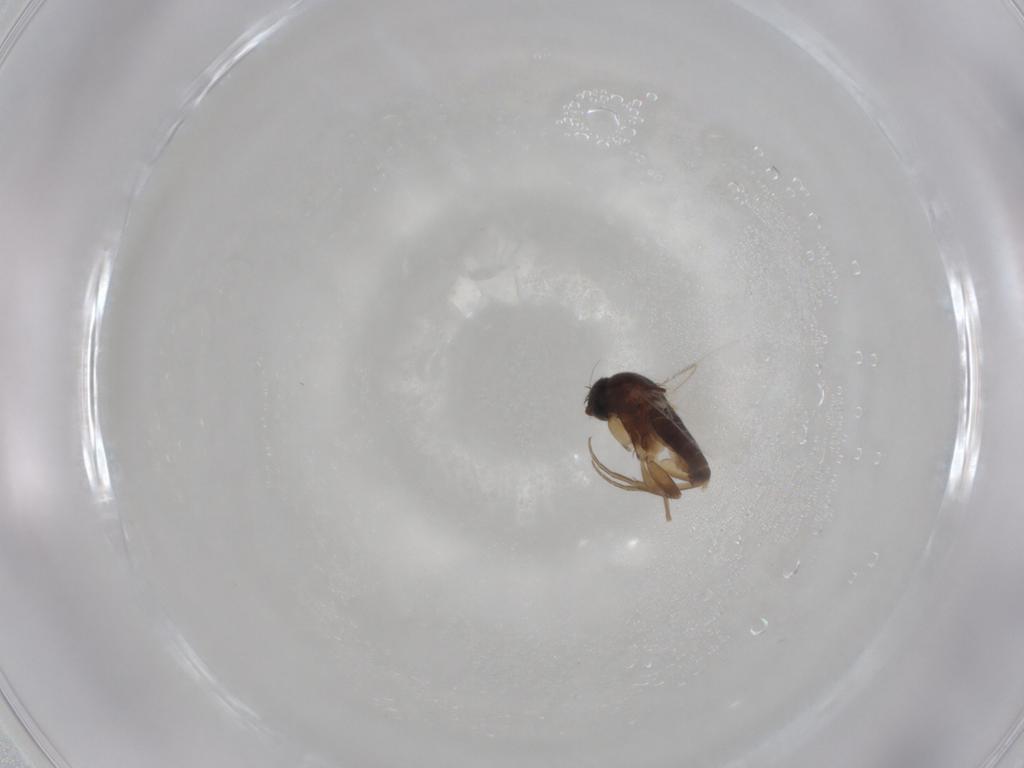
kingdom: Animalia
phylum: Arthropoda
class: Insecta
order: Diptera
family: Phoridae
